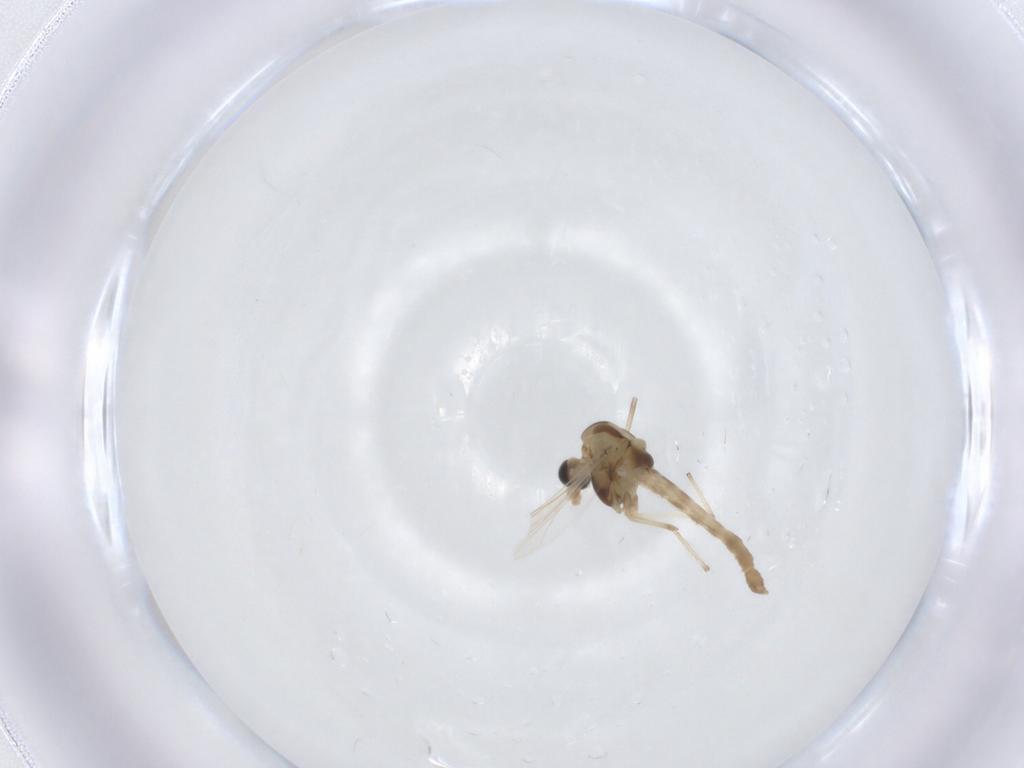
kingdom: Animalia
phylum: Arthropoda
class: Insecta
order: Diptera
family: Chironomidae
